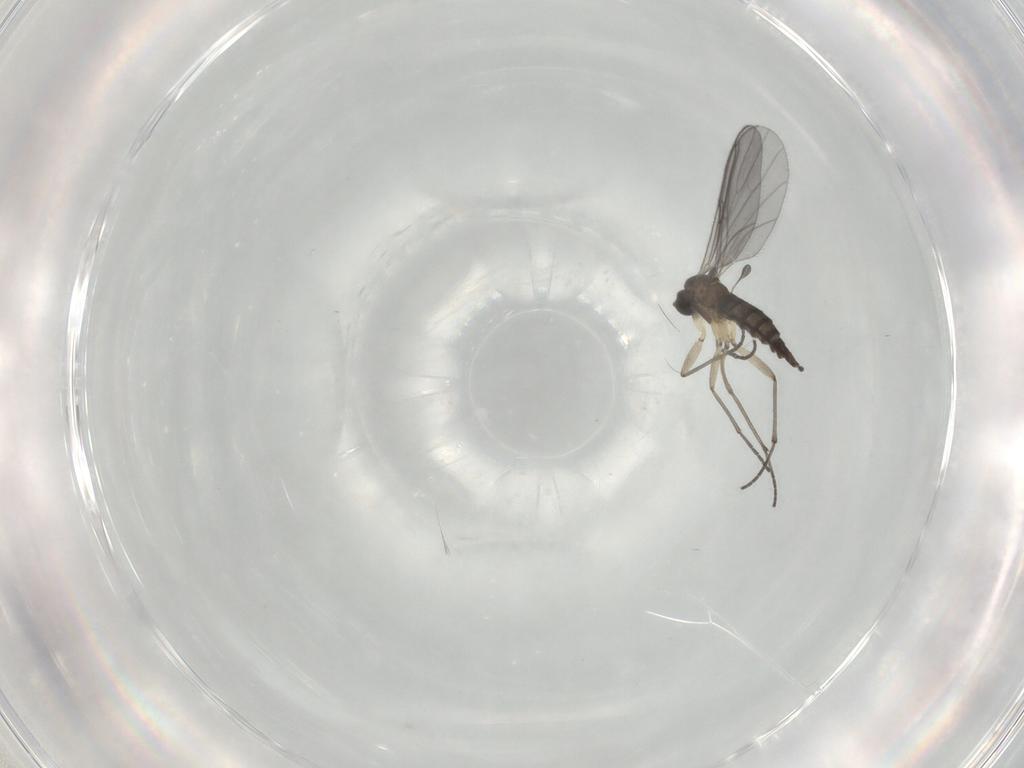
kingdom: Animalia
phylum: Arthropoda
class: Insecta
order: Diptera
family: Sciaridae
